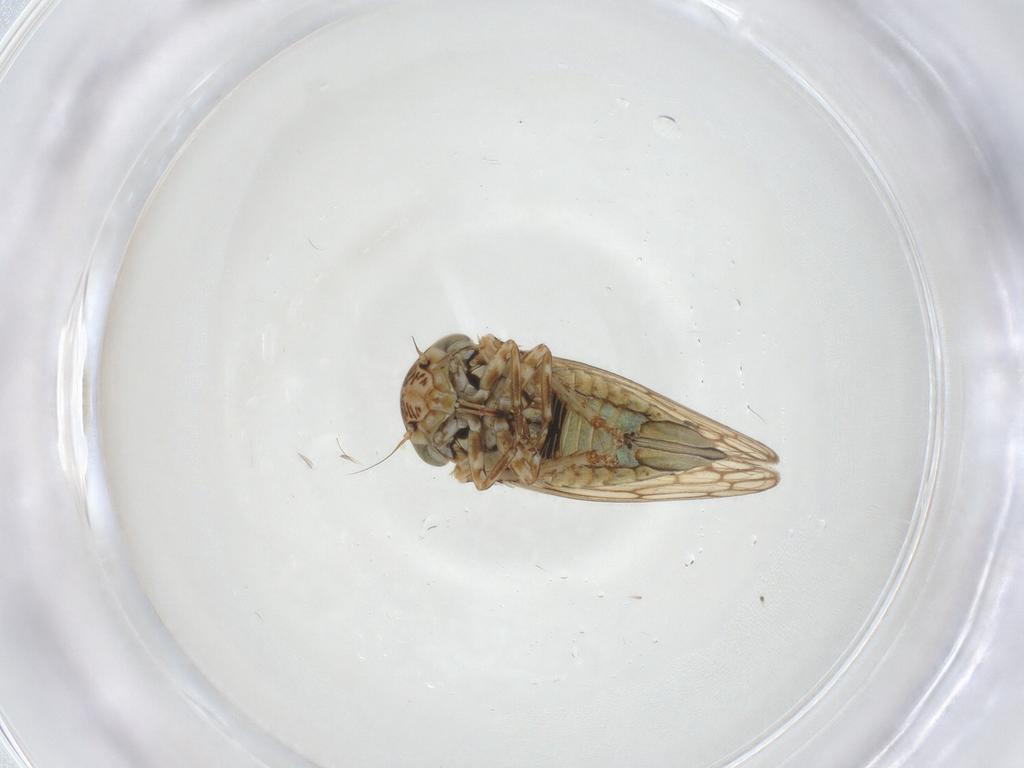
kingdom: Animalia
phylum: Arthropoda
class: Insecta
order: Hemiptera
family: Cicadellidae
